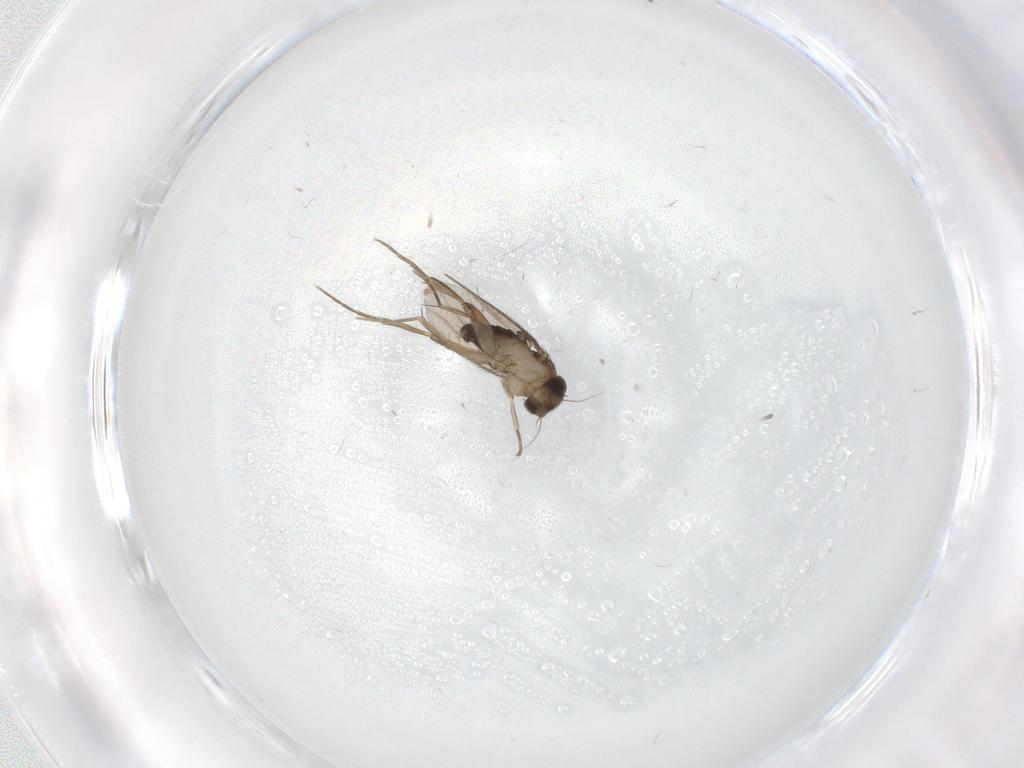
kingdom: Animalia
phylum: Arthropoda
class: Insecta
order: Diptera
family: Phoridae
